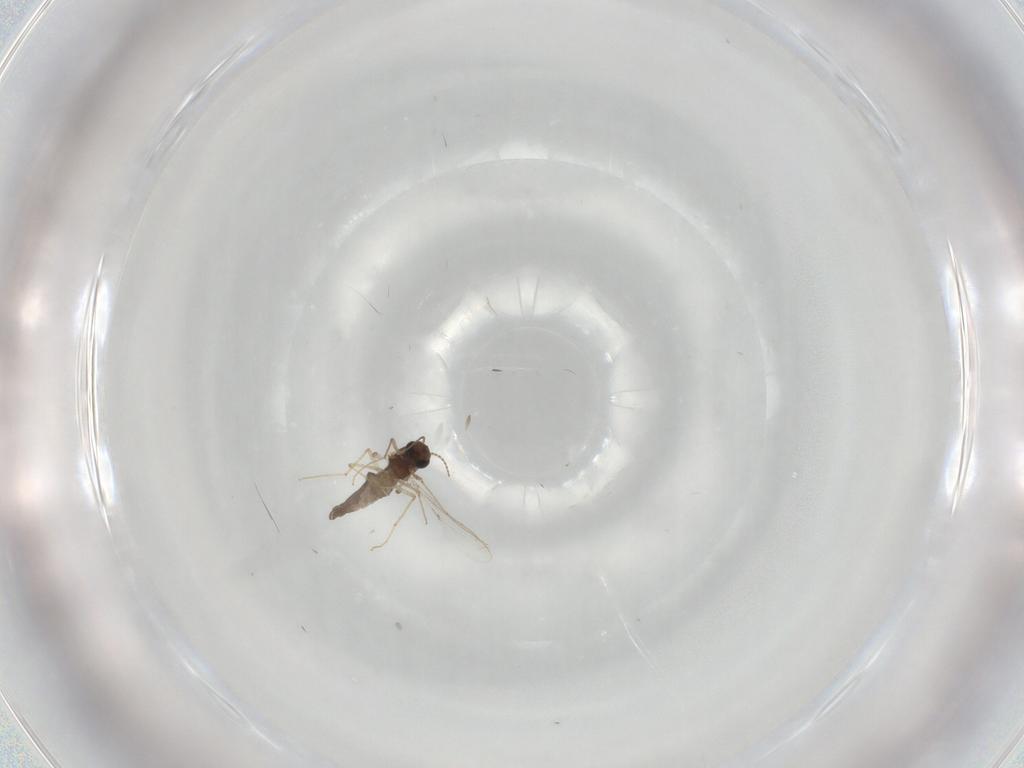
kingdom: Animalia
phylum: Arthropoda
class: Insecta
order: Diptera
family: Chironomidae
